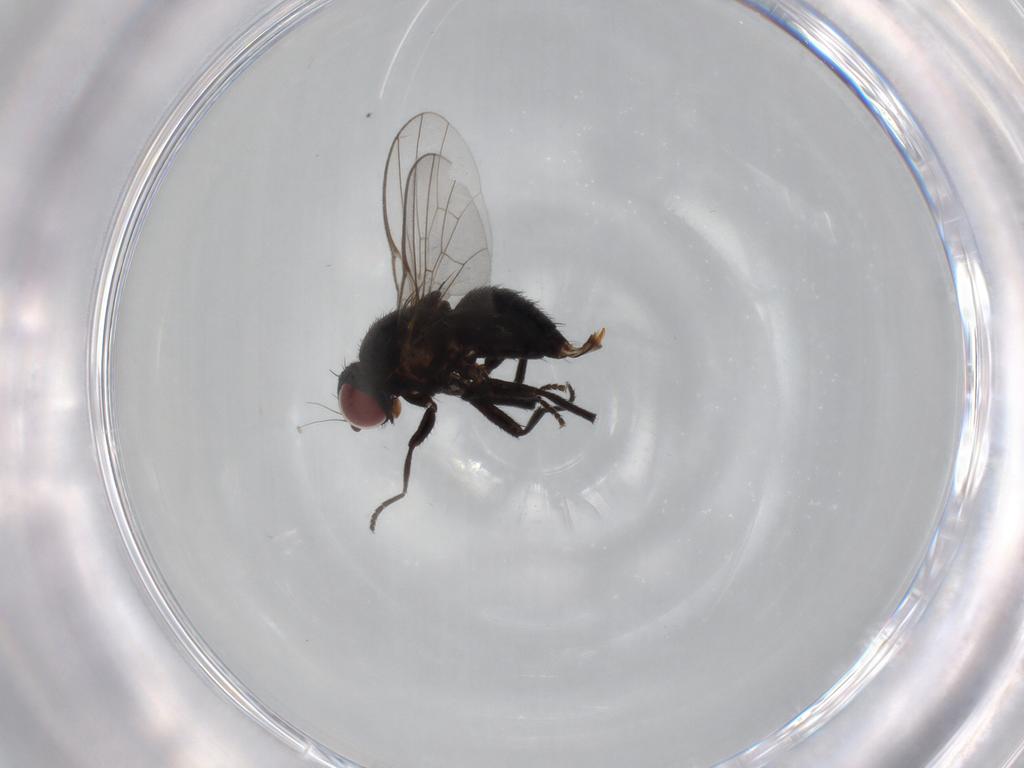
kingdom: Animalia
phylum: Arthropoda
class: Insecta
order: Diptera
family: Agromyzidae
